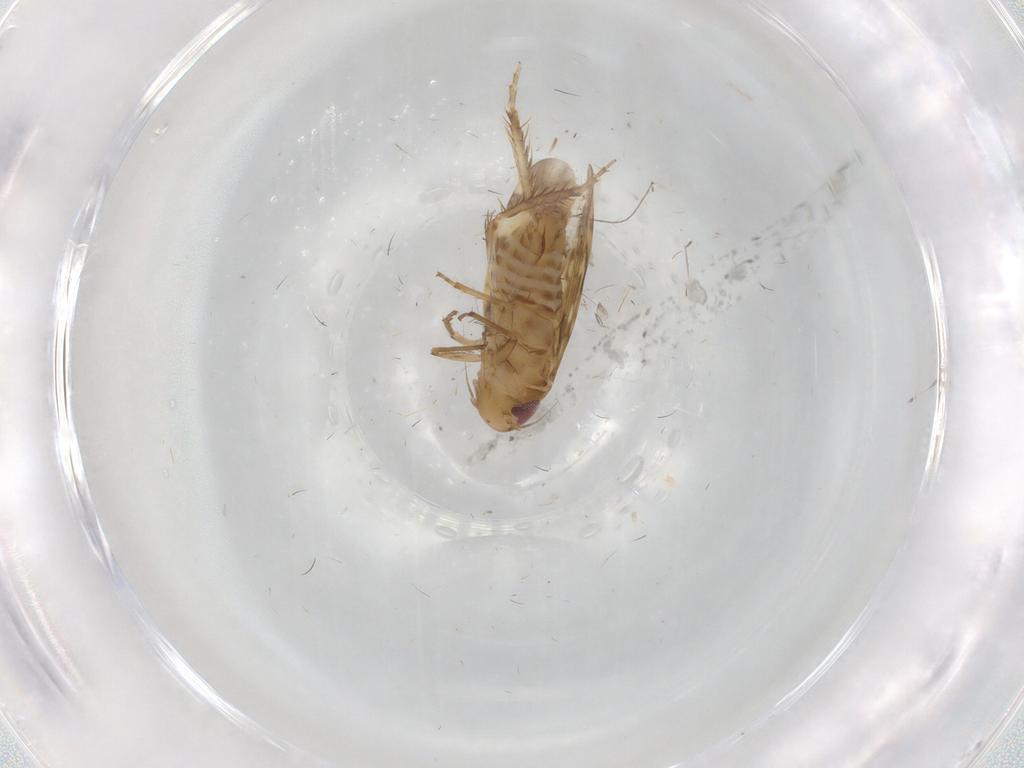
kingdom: Animalia
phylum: Arthropoda
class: Insecta
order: Hemiptera
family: Cicadellidae
